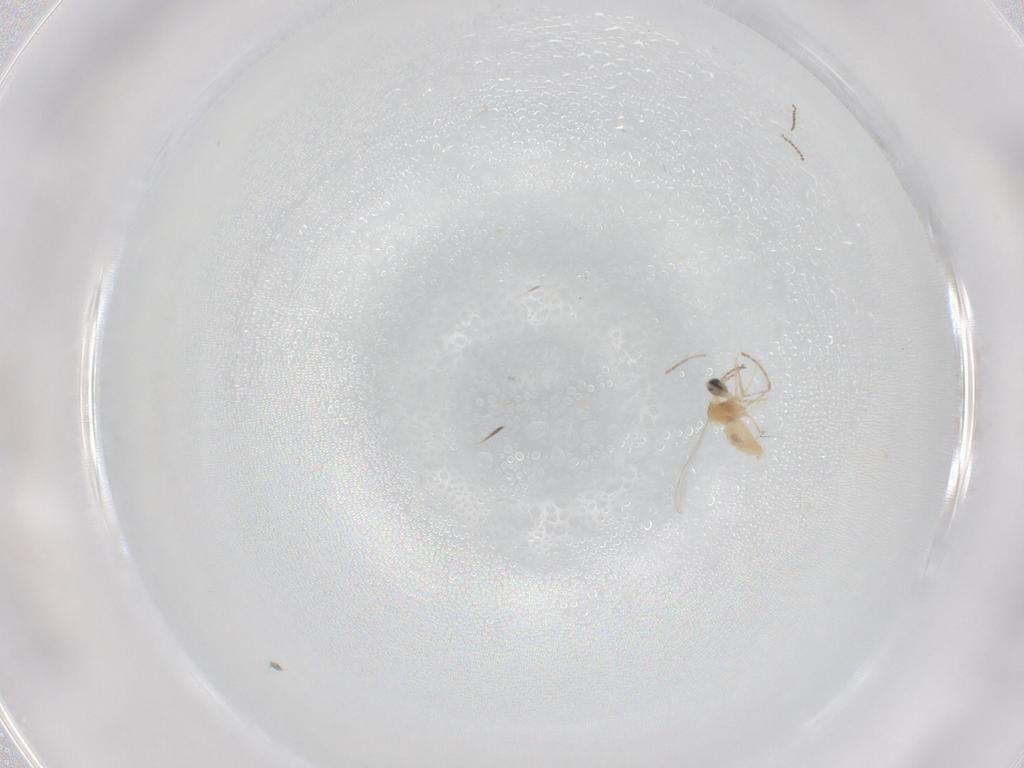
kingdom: Animalia
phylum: Arthropoda
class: Insecta
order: Diptera
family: Cecidomyiidae
